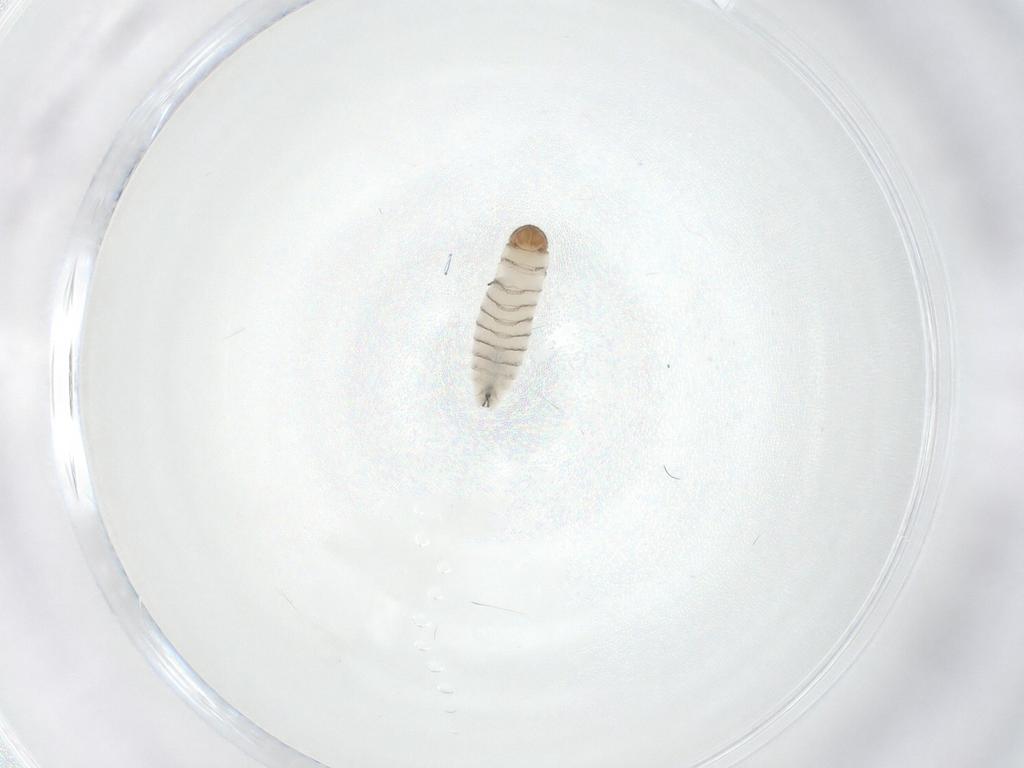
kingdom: Animalia
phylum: Arthropoda
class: Insecta
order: Diptera
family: Sarcophagidae
